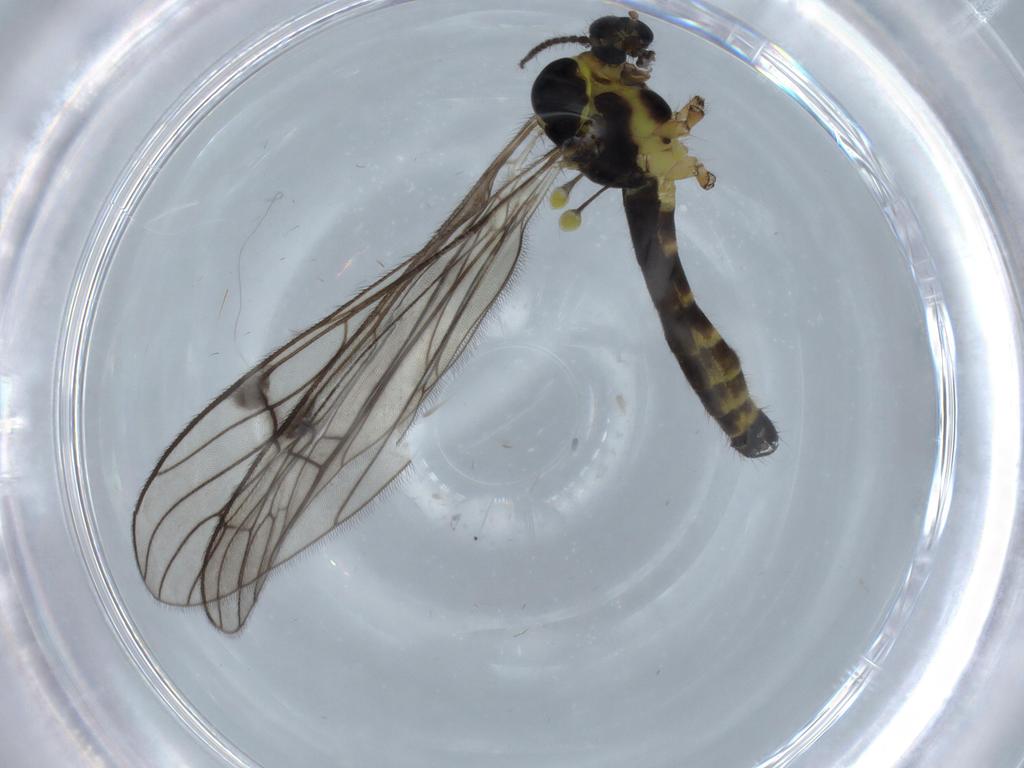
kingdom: Animalia
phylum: Arthropoda
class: Insecta
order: Diptera
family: Limoniidae
